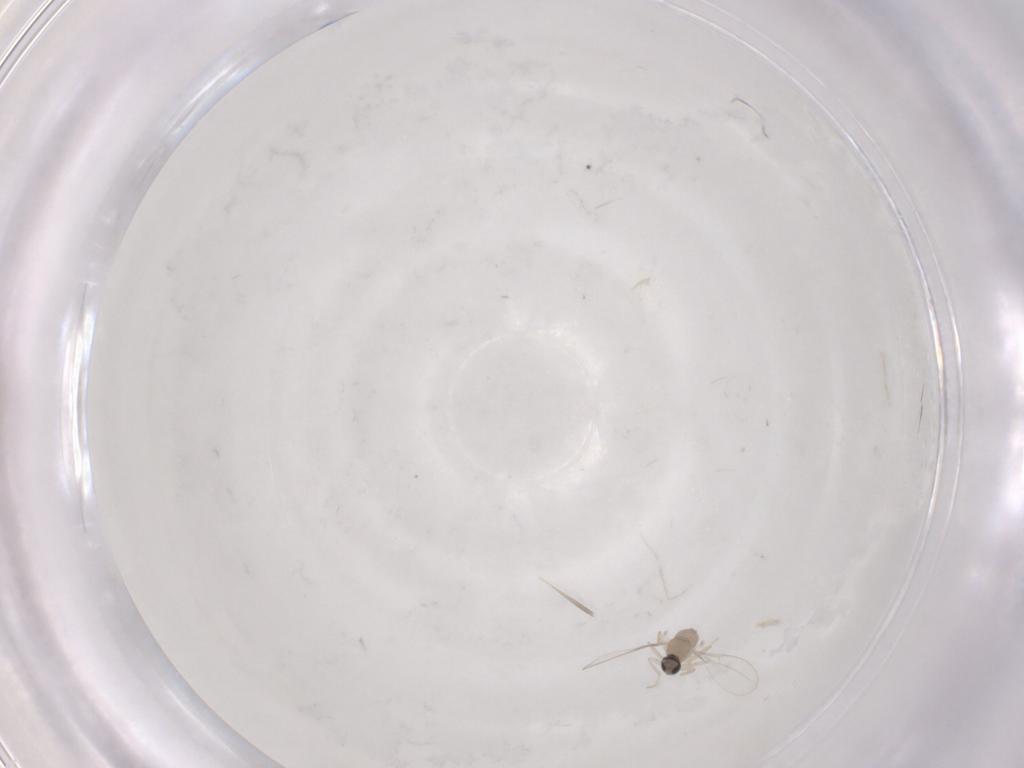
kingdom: Animalia
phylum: Arthropoda
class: Insecta
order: Diptera
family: Cecidomyiidae
